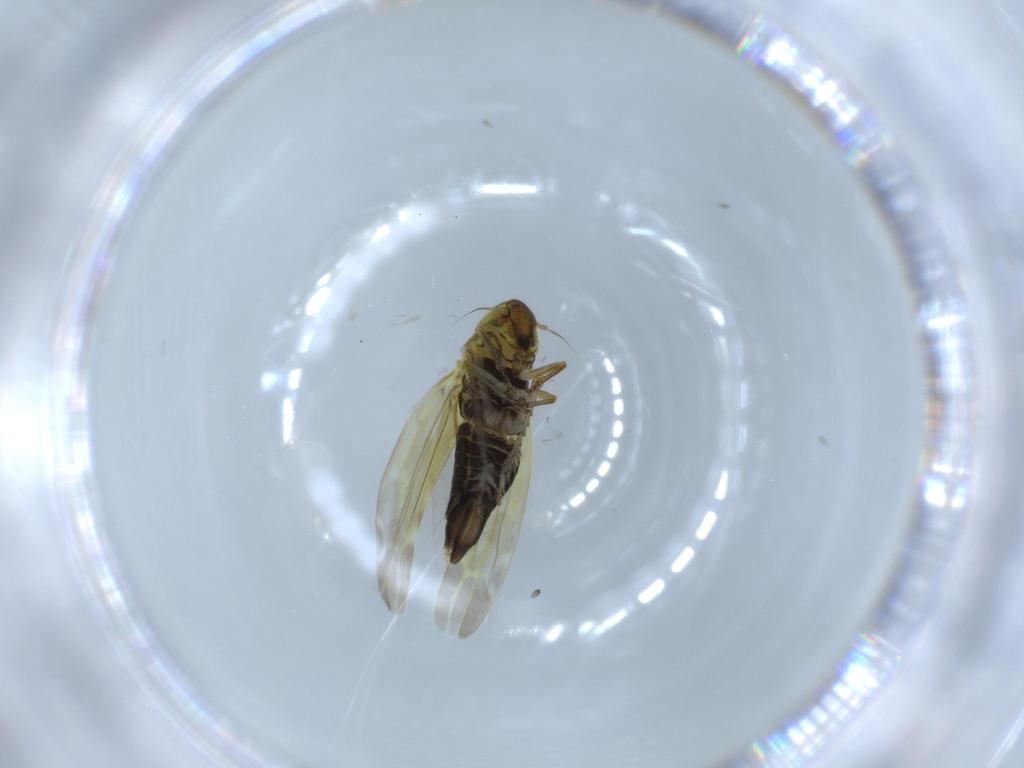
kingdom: Animalia
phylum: Arthropoda
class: Insecta
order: Hemiptera
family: Cicadellidae
